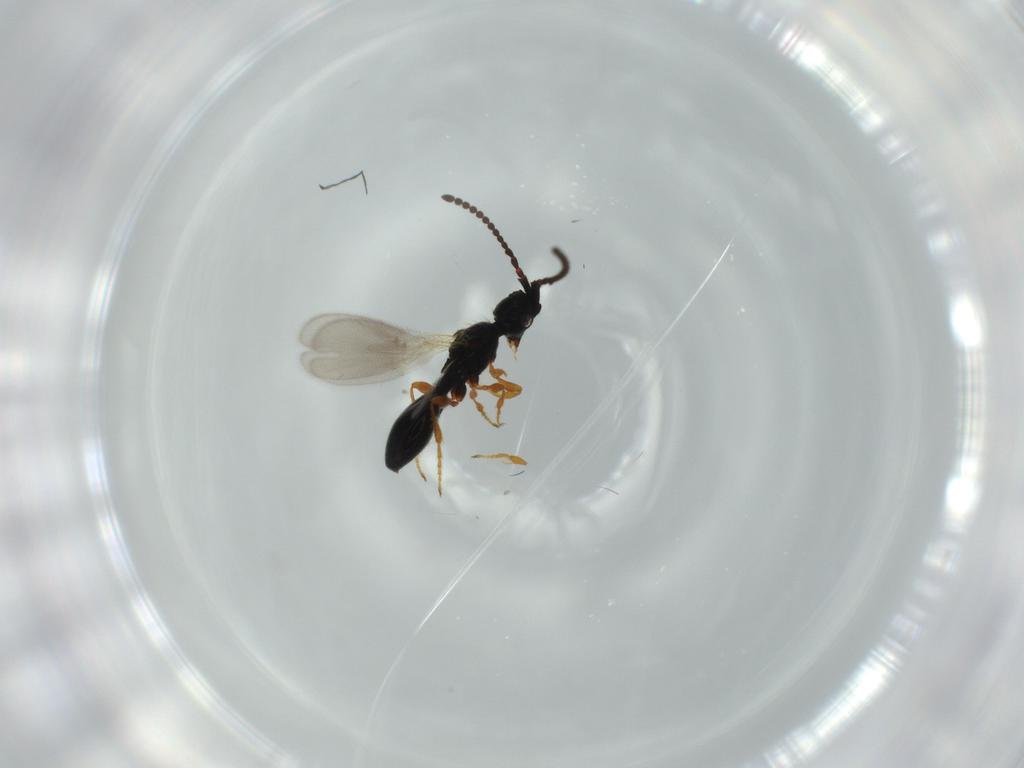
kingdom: Animalia
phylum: Arthropoda
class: Insecta
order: Hymenoptera
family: Diapriidae
